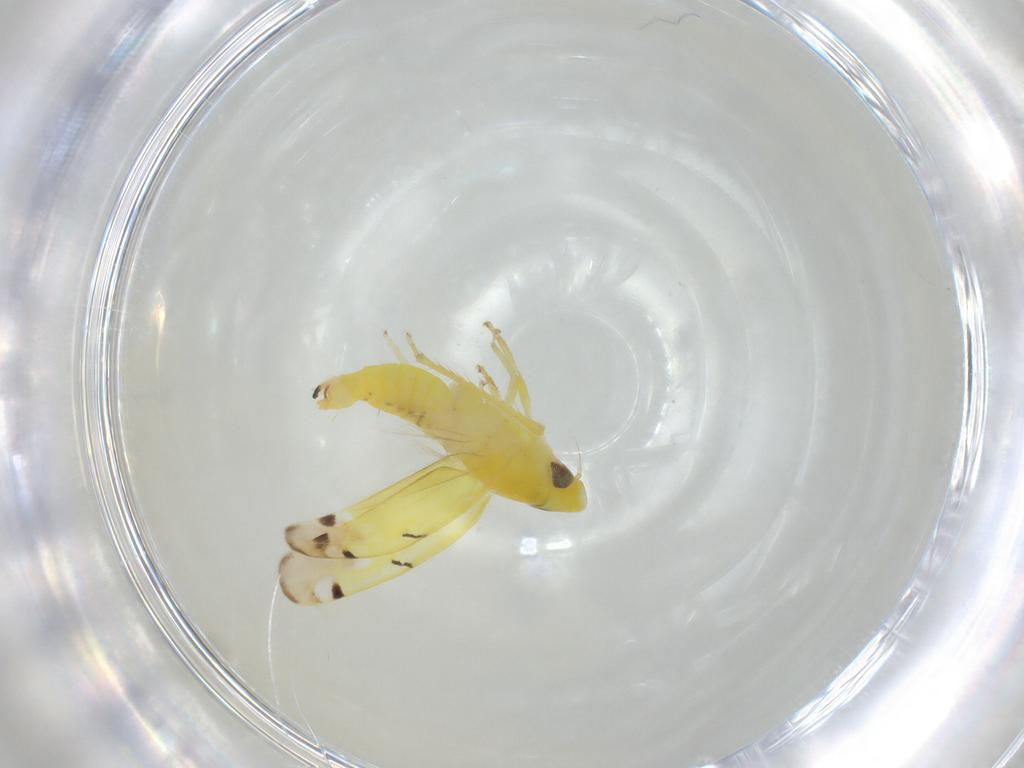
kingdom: Animalia
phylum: Arthropoda
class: Insecta
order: Hemiptera
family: Cicadellidae
